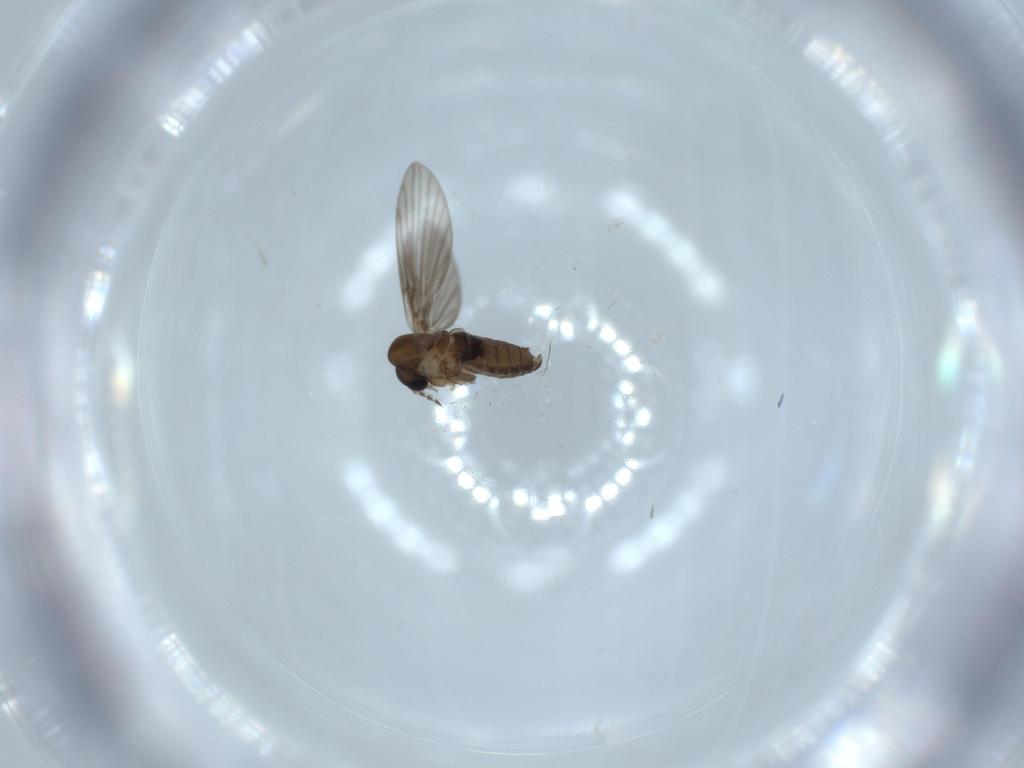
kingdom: Animalia
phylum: Arthropoda
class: Insecta
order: Diptera
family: Psychodidae
